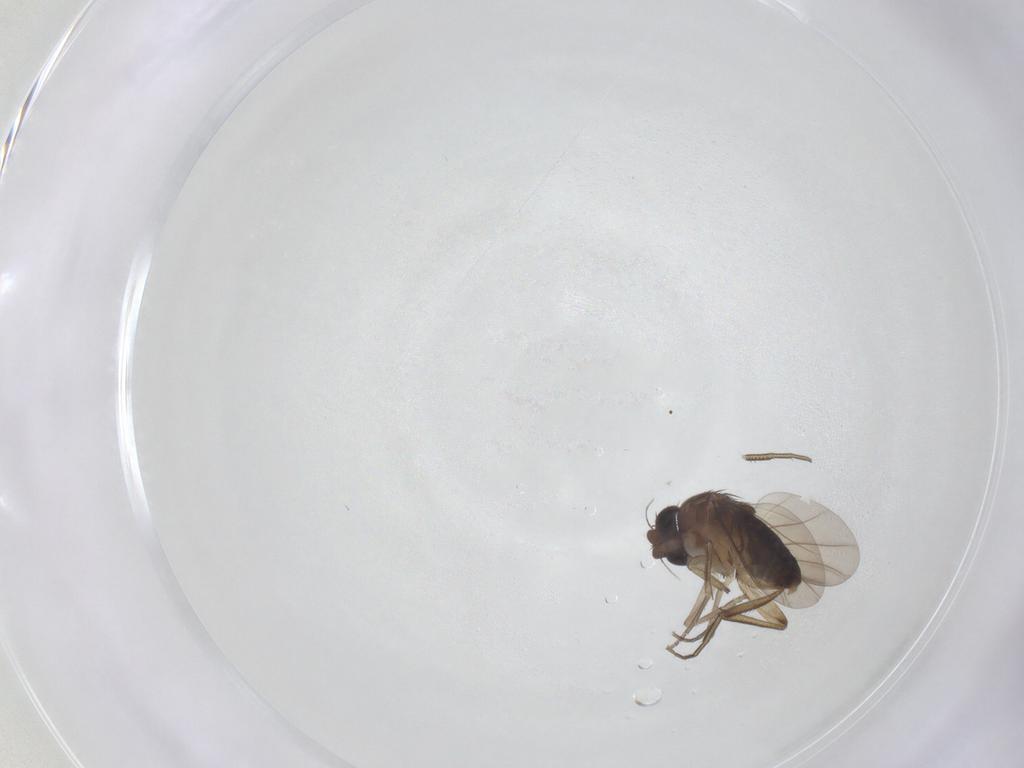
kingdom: Animalia
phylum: Arthropoda
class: Insecta
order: Diptera
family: Phoridae
